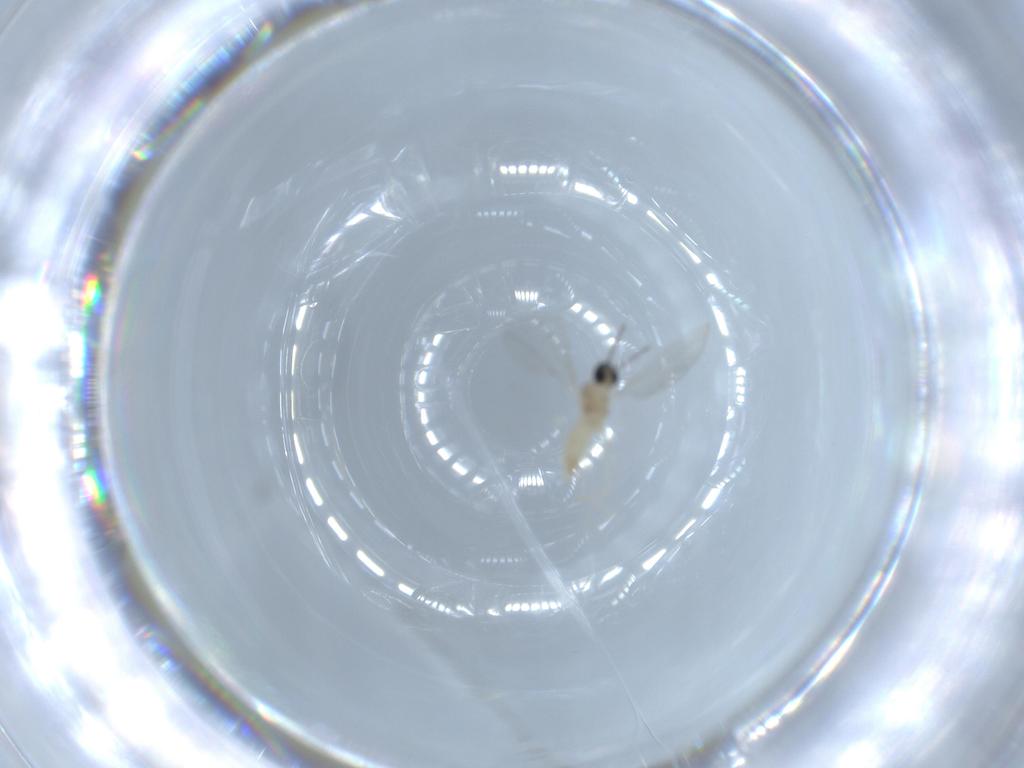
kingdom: Animalia
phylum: Arthropoda
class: Insecta
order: Diptera
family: Cecidomyiidae
